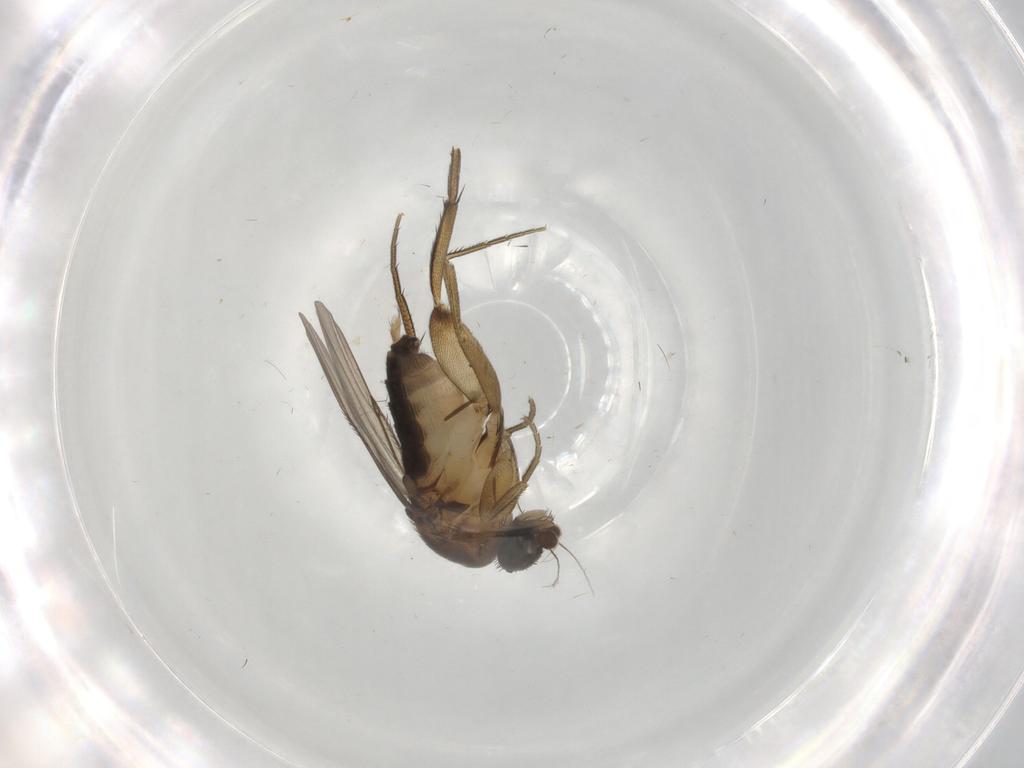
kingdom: Animalia
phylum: Arthropoda
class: Insecta
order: Diptera
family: Phoridae
